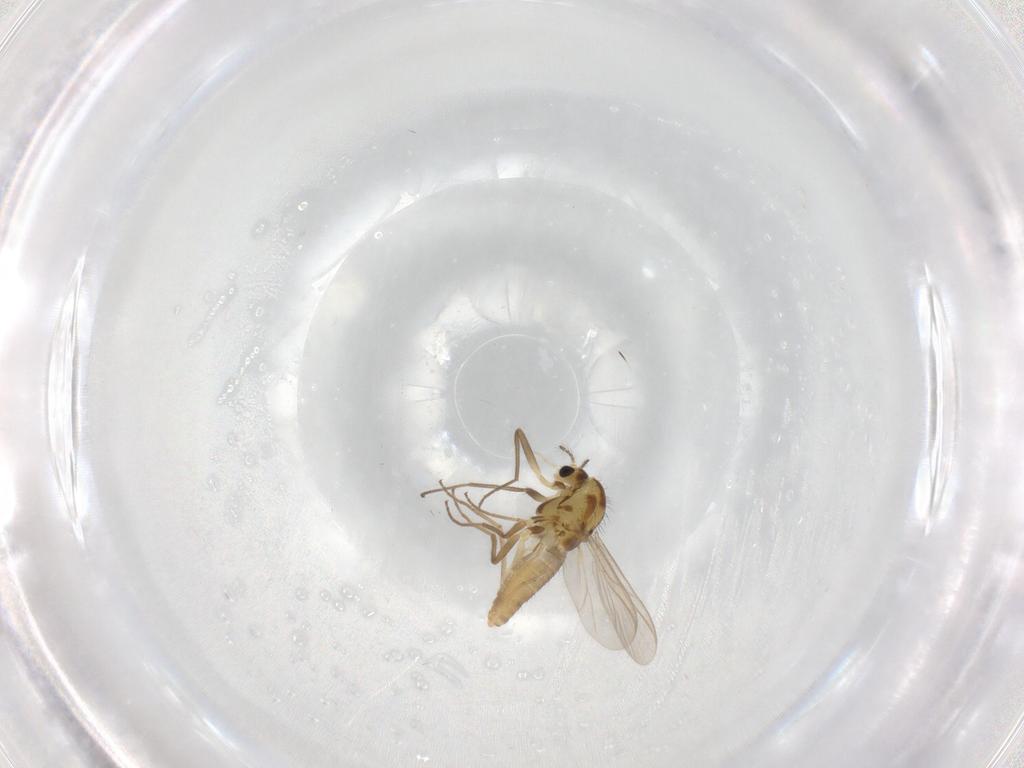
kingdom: Animalia
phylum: Arthropoda
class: Insecta
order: Diptera
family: Chironomidae
